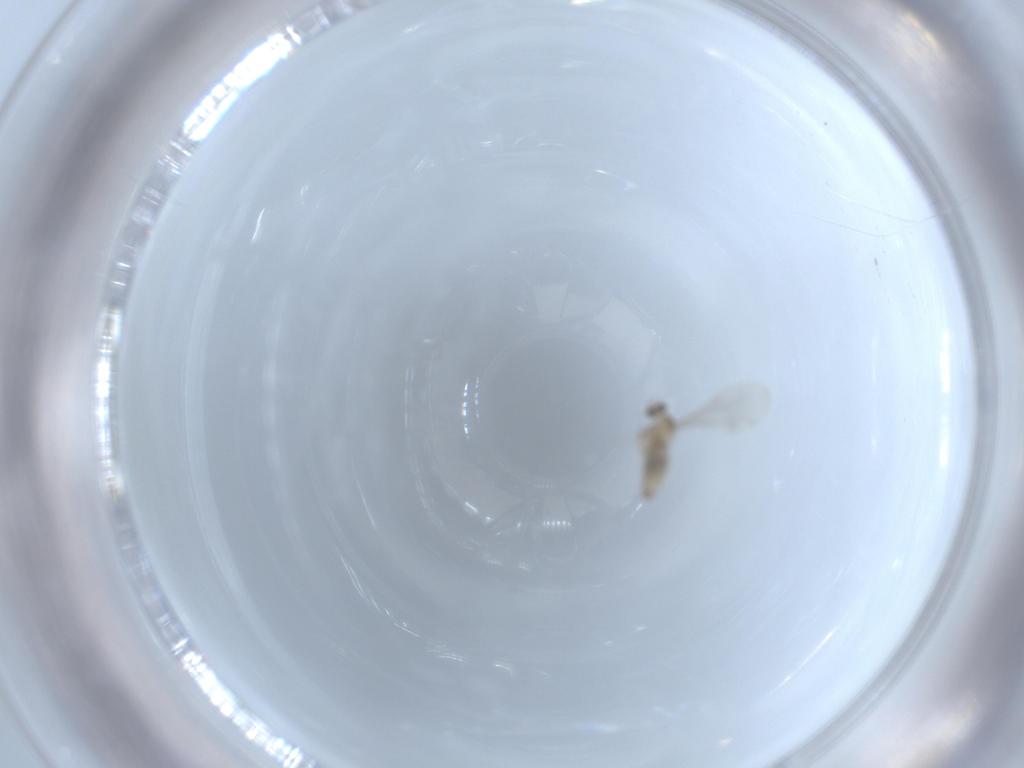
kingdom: Animalia
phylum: Arthropoda
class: Insecta
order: Diptera
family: Cecidomyiidae
